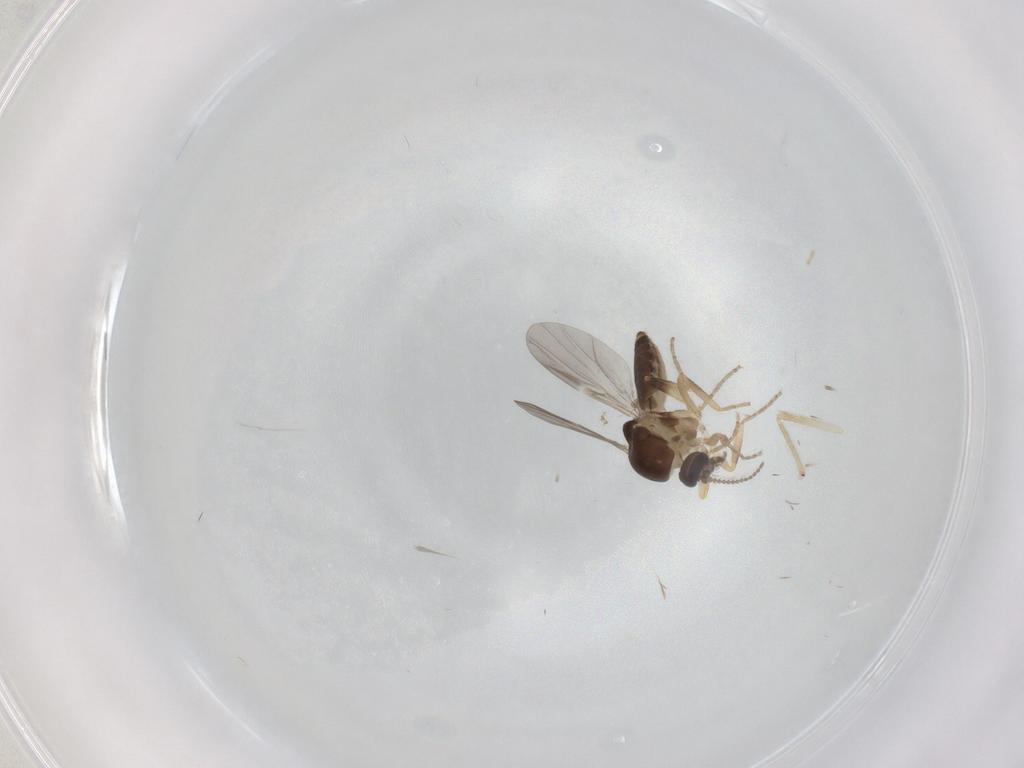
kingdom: Animalia
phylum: Arthropoda
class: Insecta
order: Diptera
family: Ceratopogonidae
